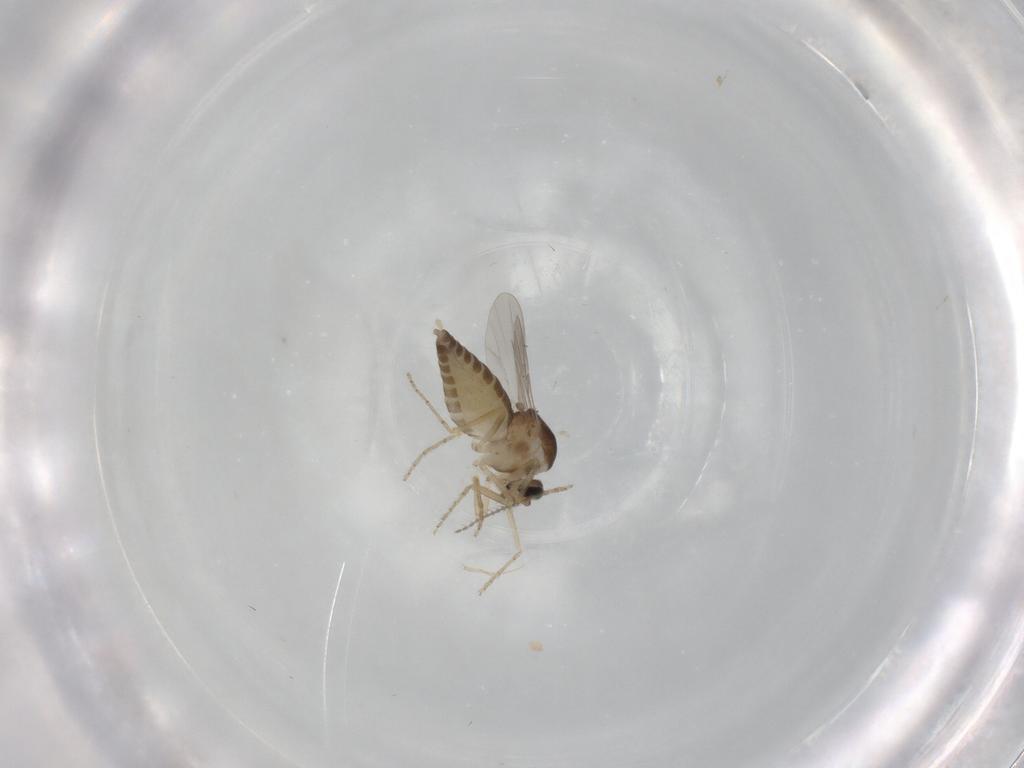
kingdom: Animalia
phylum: Arthropoda
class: Insecta
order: Diptera
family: Ceratopogonidae
